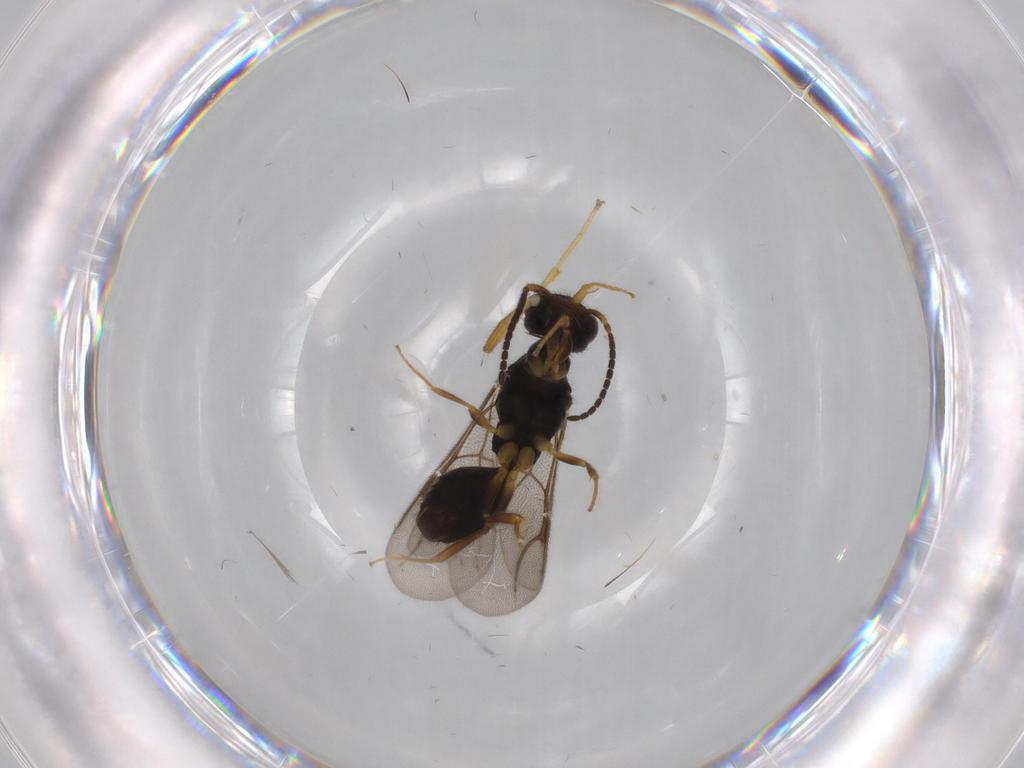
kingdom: Animalia
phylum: Arthropoda
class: Insecta
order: Hymenoptera
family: Bethylidae
